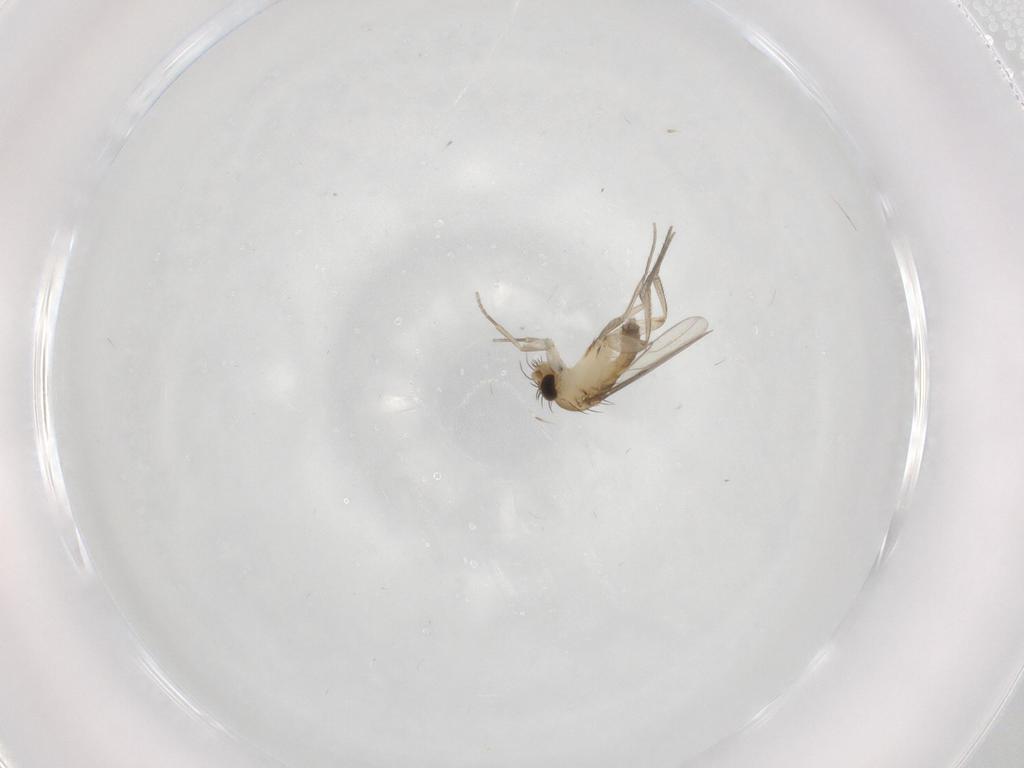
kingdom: Animalia
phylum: Arthropoda
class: Insecta
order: Diptera
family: Phoridae
